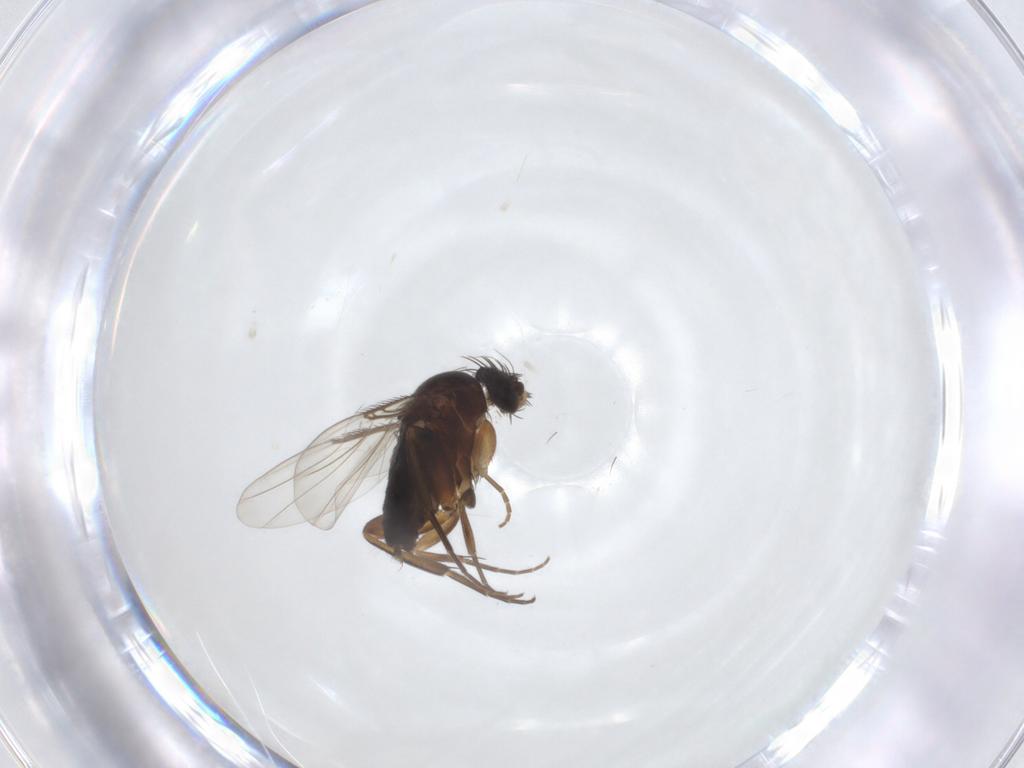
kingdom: Animalia
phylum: Arthropoda
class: Insecta
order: Diptera
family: Phoridae
